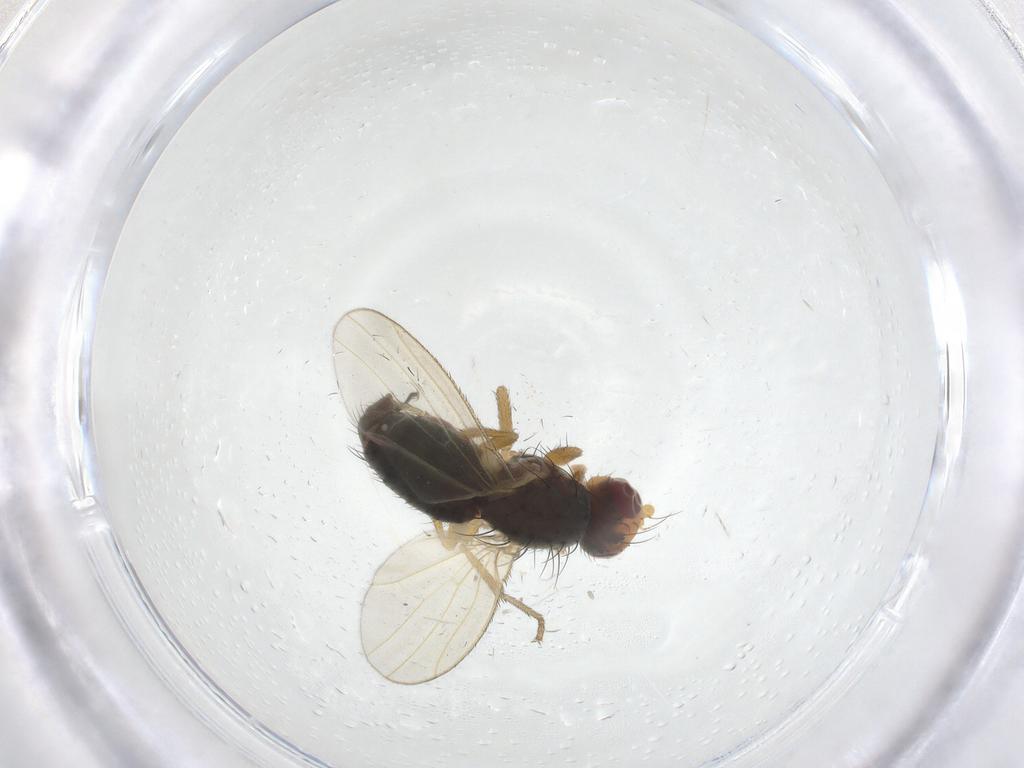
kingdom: Animalia
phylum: Arthropoda
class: Insecta
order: Diptera
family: Heleomyzidae
